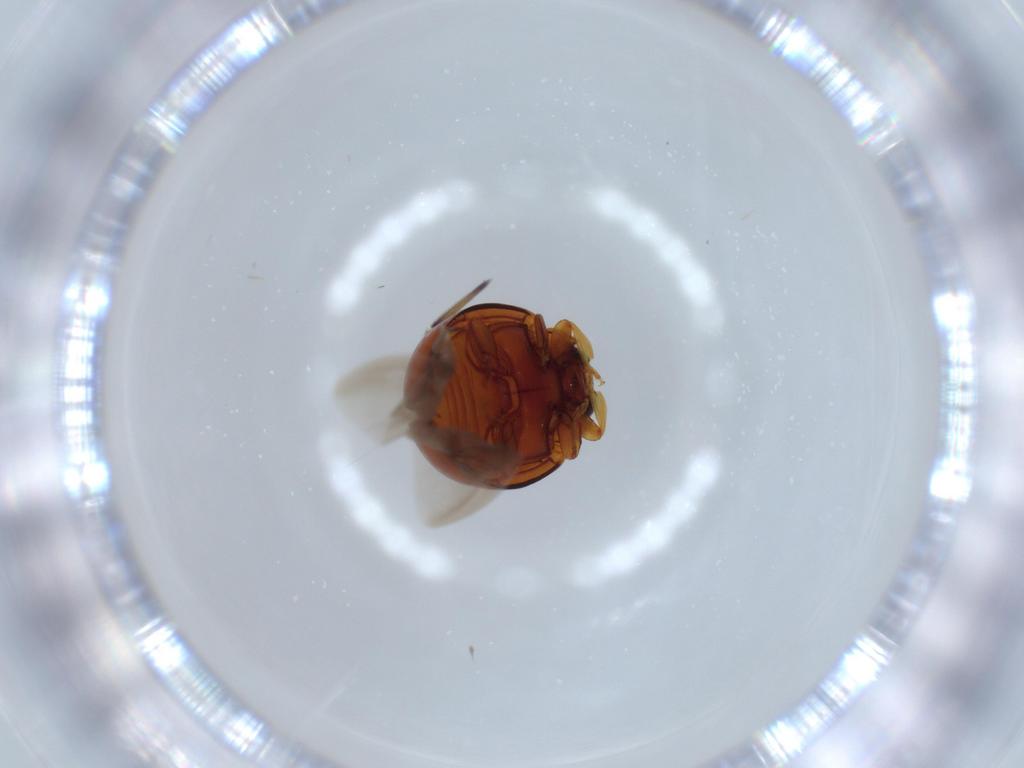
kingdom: Animalia
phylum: Arthropoda
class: Insecta
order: Coleoptera
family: Coccinellidae
